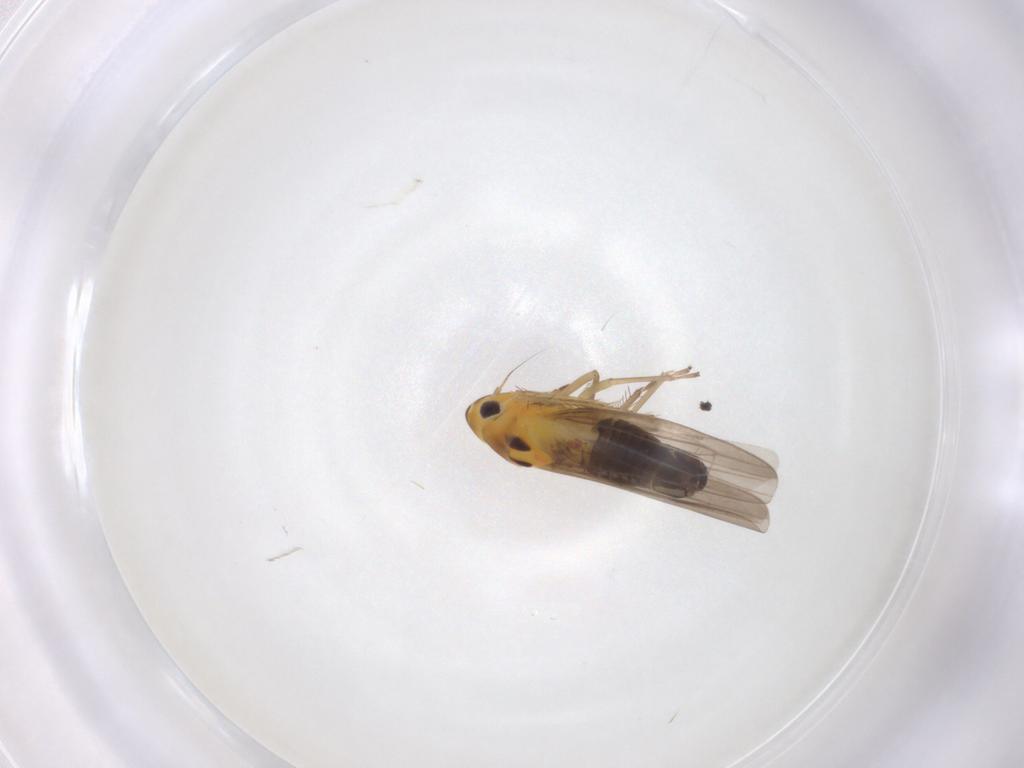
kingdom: Animalia
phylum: Arthropoda
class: Insecta
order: Hemiptera
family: Cicadellidae
